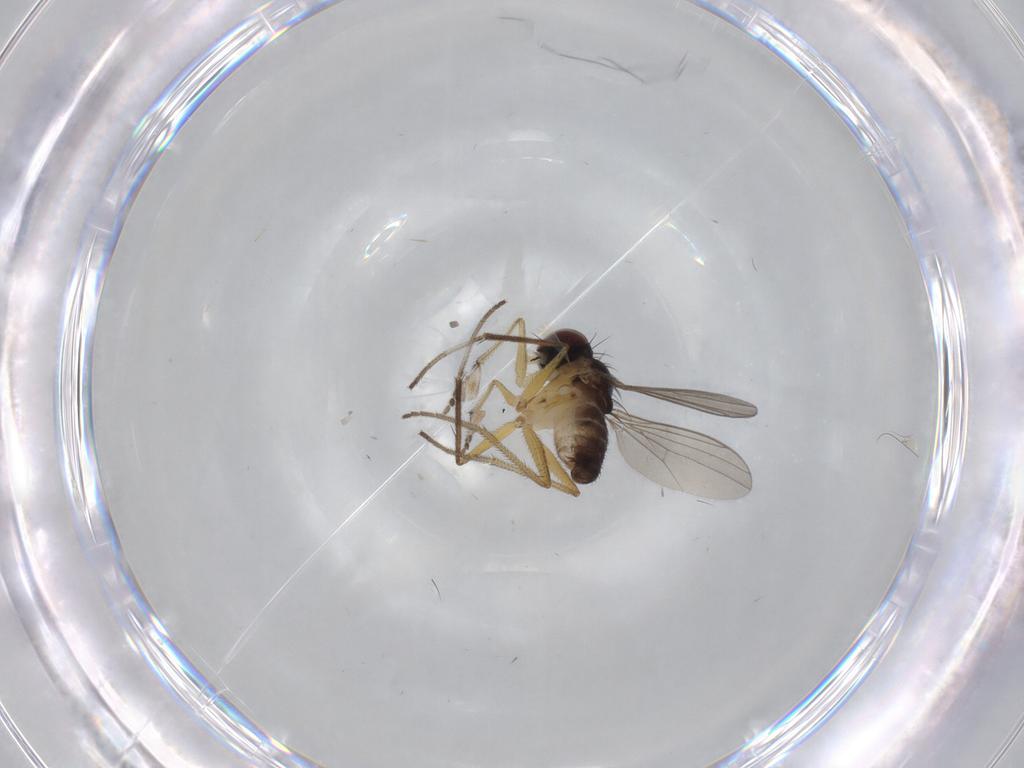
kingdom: Animalia
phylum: Arthropoda
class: Insecta
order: Diptera
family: Dolichopodidae
